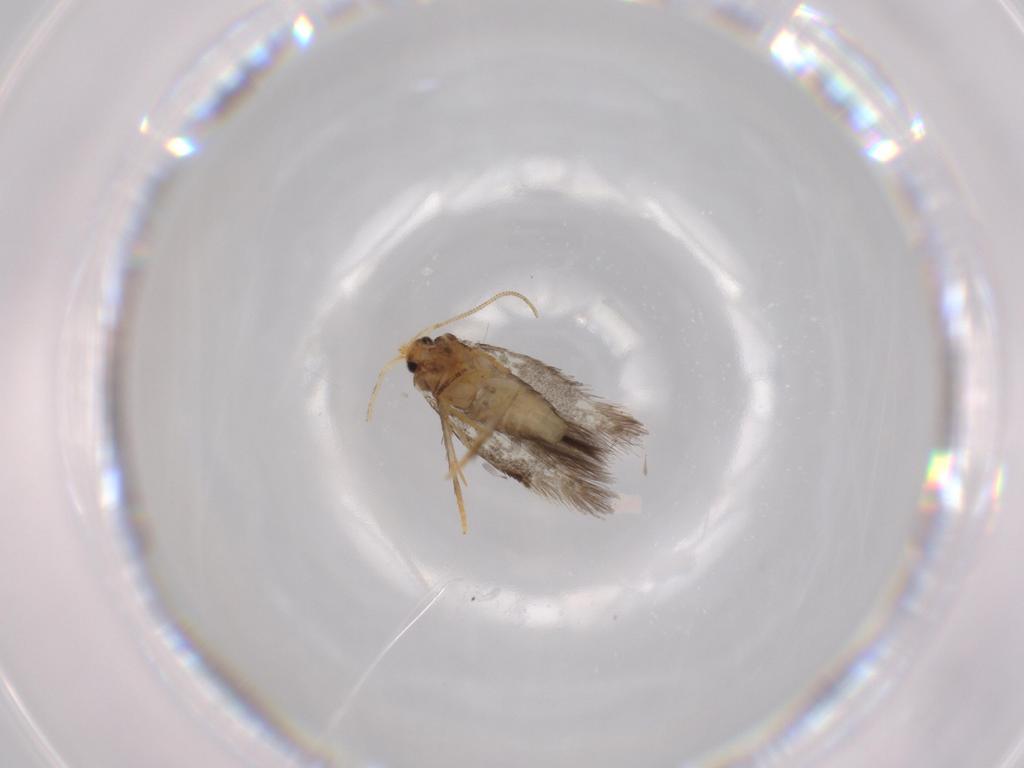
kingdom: Animalia
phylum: Arthropoda
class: Insecta
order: Lepidoptera
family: Nepticulidae
